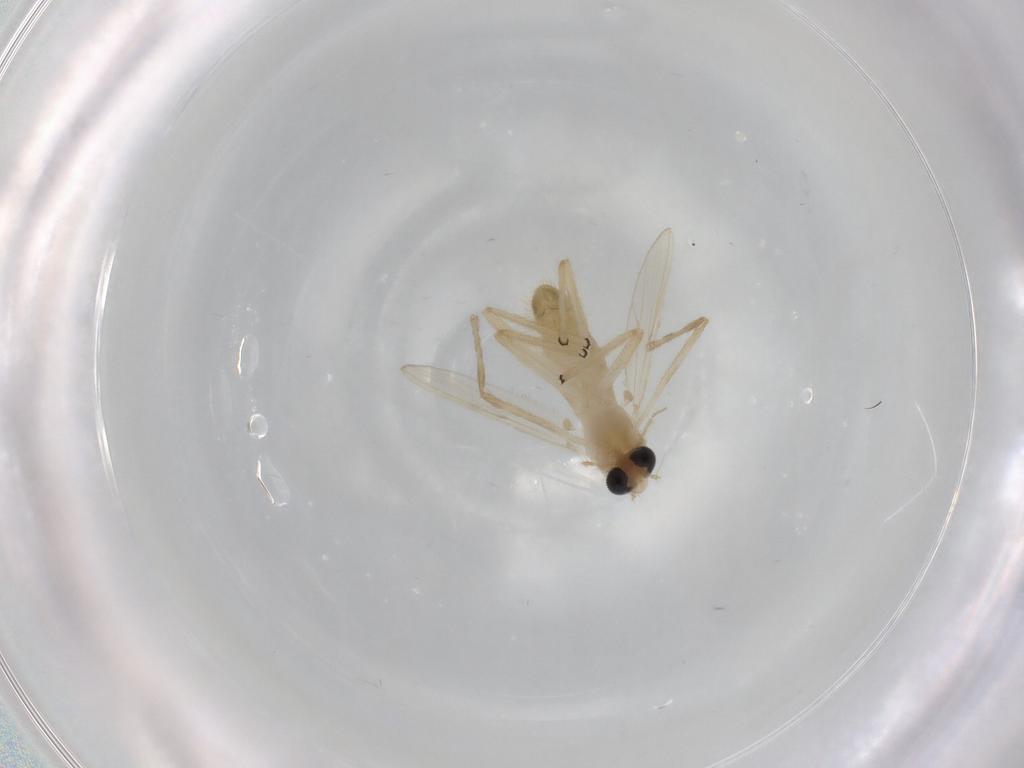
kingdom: Animalia
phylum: Arthropoda
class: Insecta
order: Diptera
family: Chironomidae
